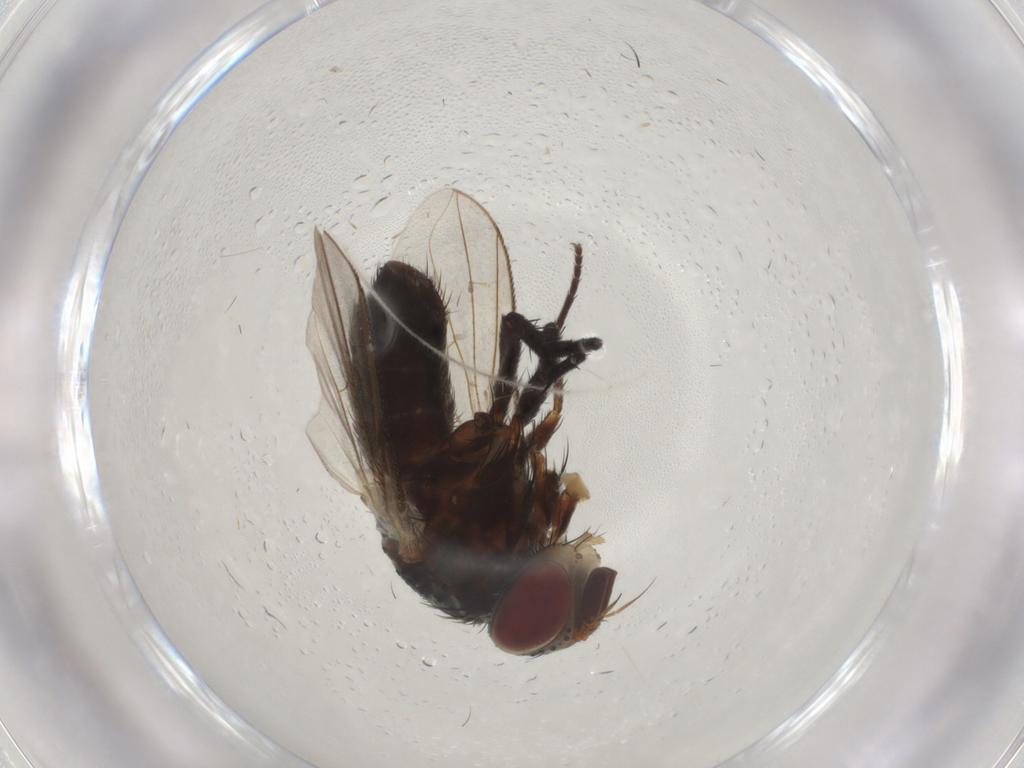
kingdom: Animalia
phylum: Arthropoda
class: Insecta
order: Diptera
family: Tachinidae
